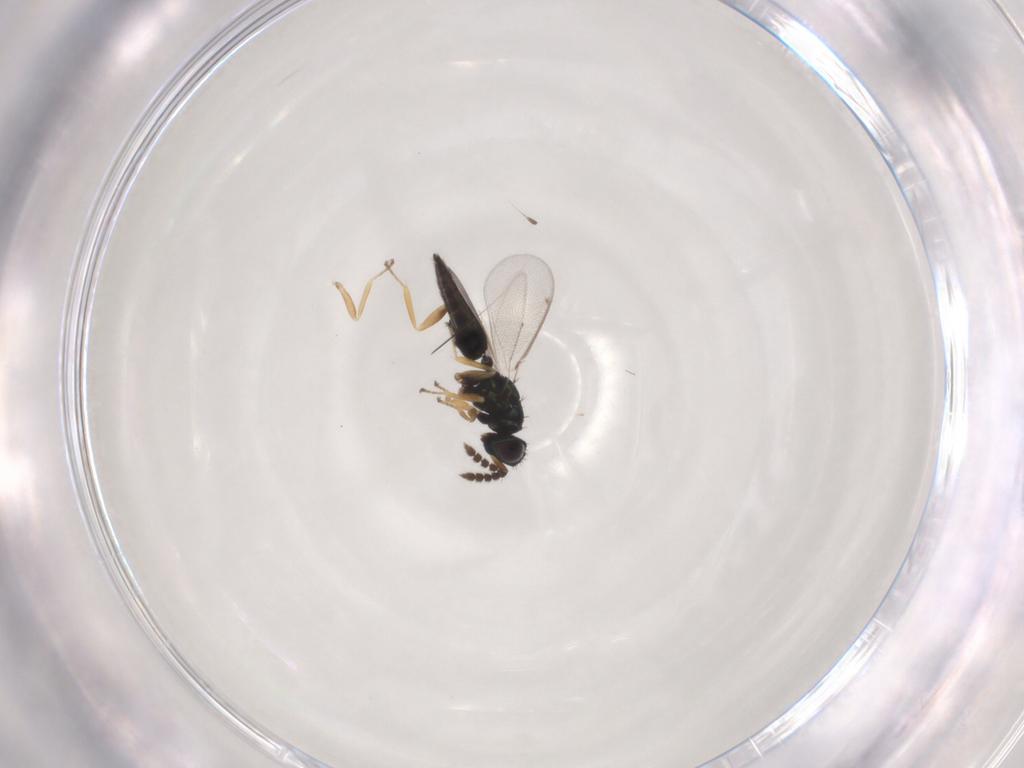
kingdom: Animalia
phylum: Arthropoda
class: Insecta
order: Hymenoptera
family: Eulophidae
